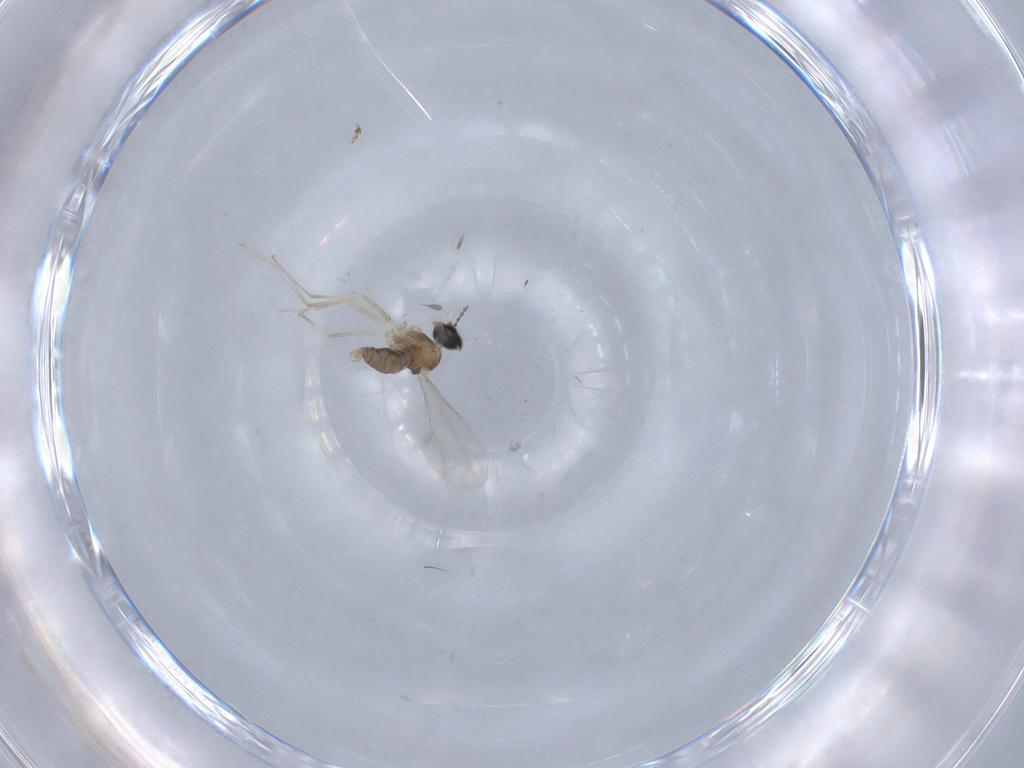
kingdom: Animalia
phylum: Arthropoda
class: Insecta
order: Diptera
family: Cecidomyiidae
